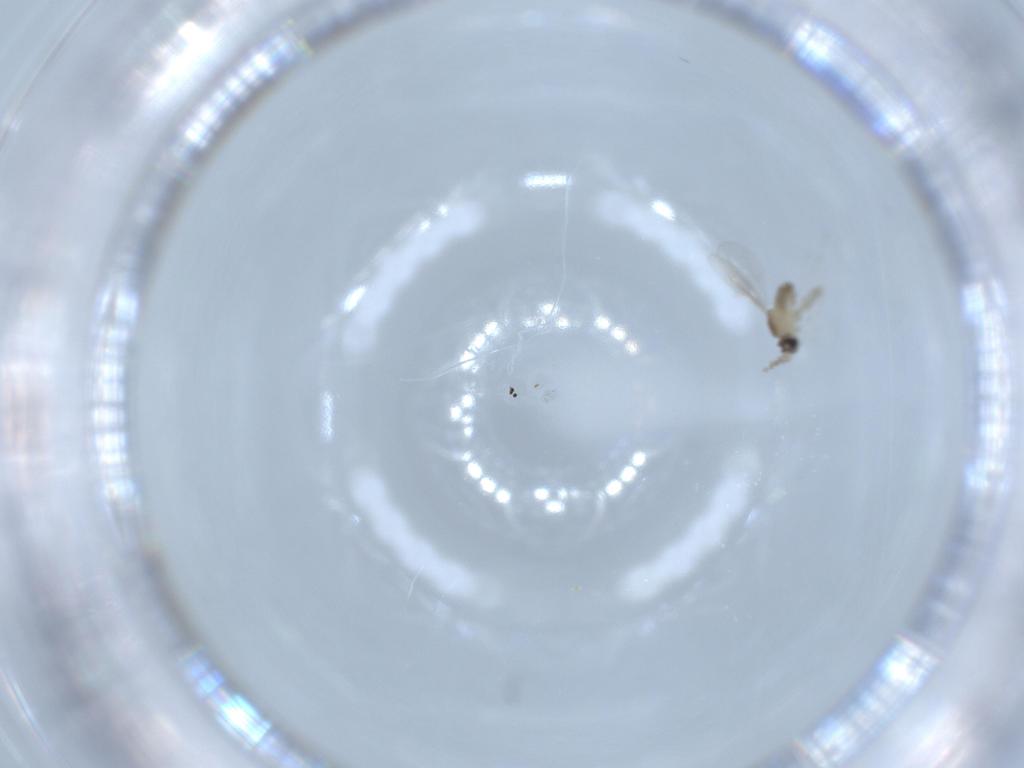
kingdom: Animalia
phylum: Arthropoda
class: Insecta
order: Diptera
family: Cecidomyiidae
